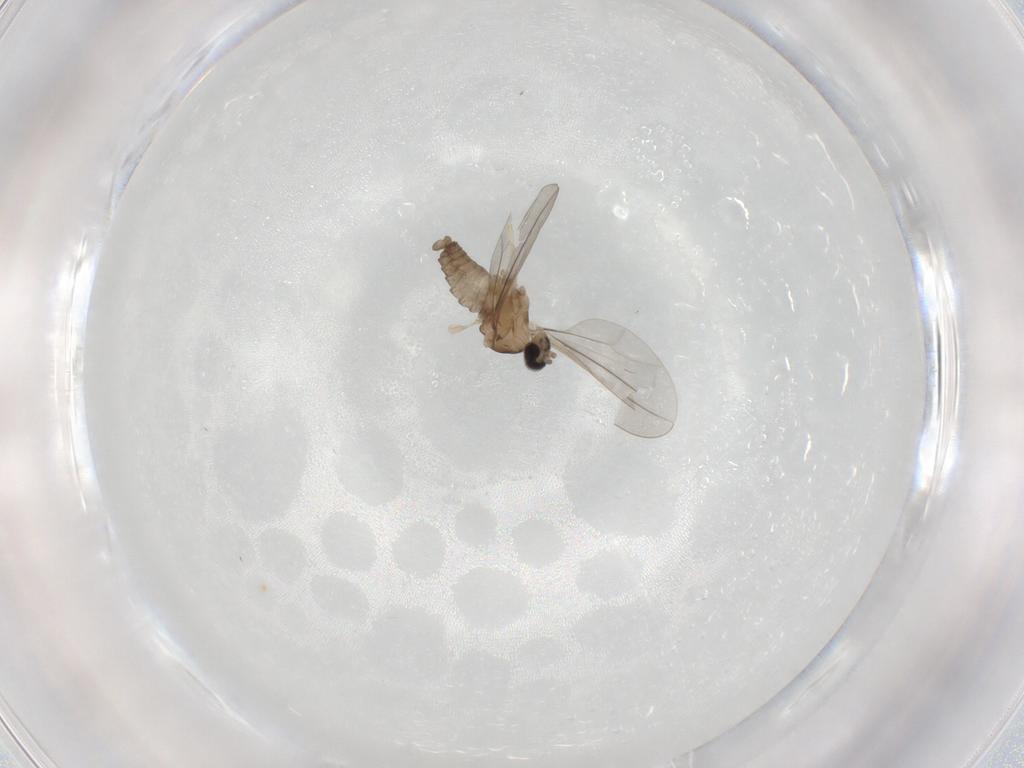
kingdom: Animalia
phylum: Arthropoda
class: Insecta
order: Diptera
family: Cecidomyiidae
